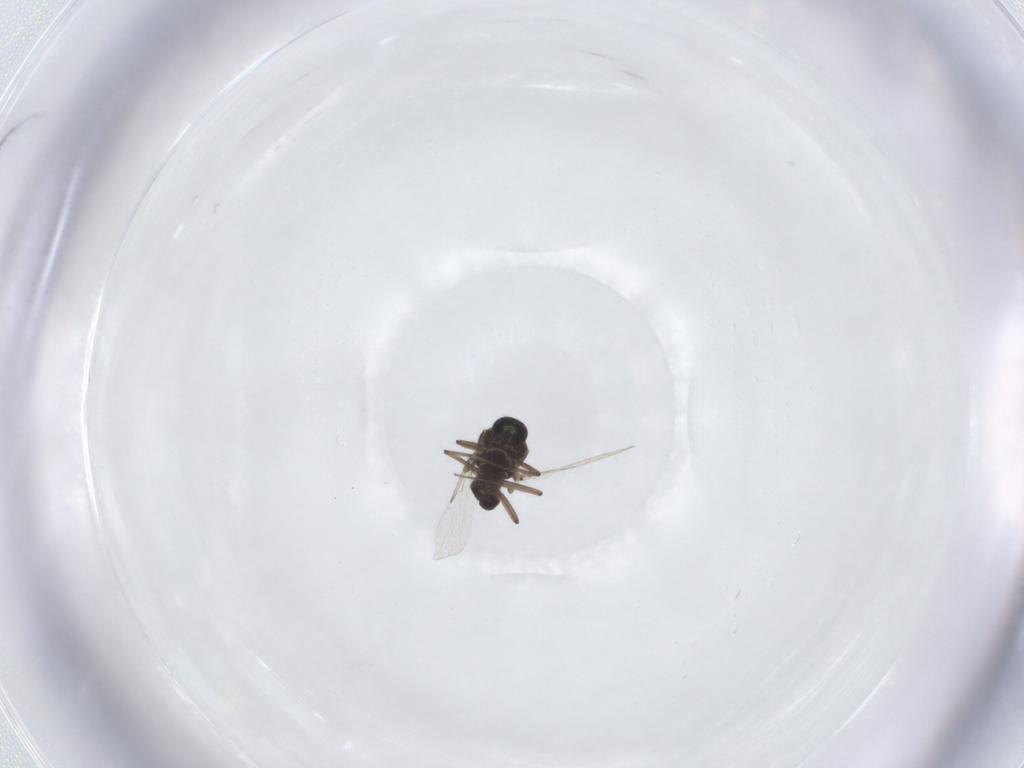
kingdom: Animalia
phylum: Arthropoda
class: Insecta
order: Diptera
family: Ceratopogonidae
